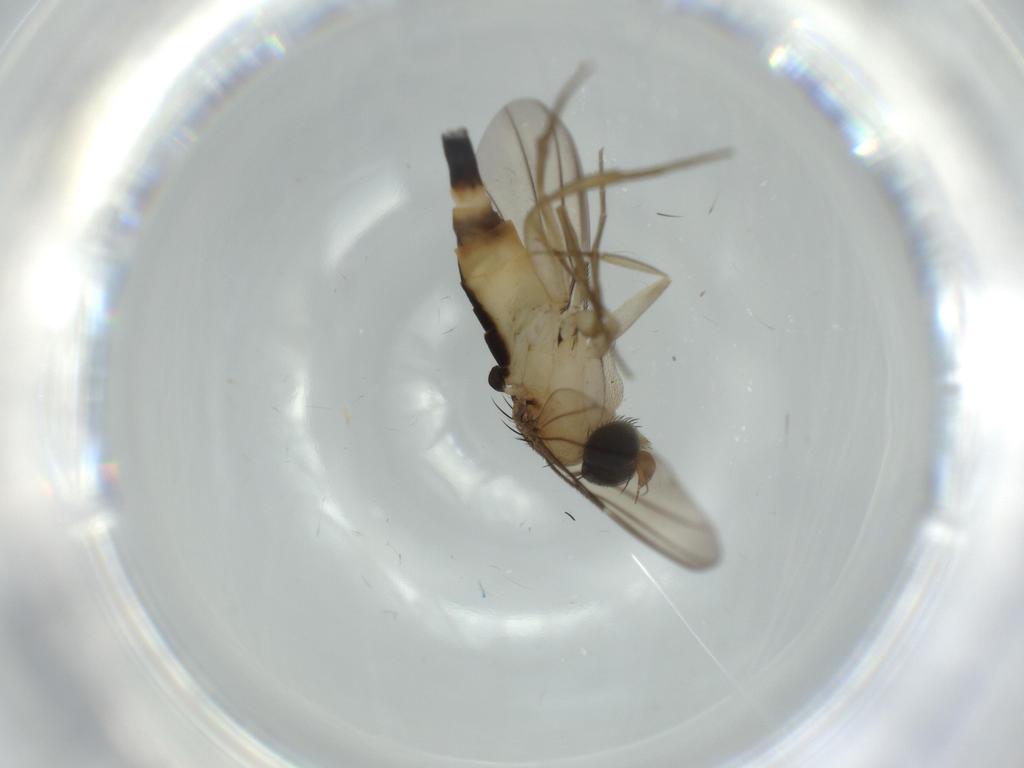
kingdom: Animalia
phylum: Arthropoda
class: Insecta
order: Diptera
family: Phoridae
